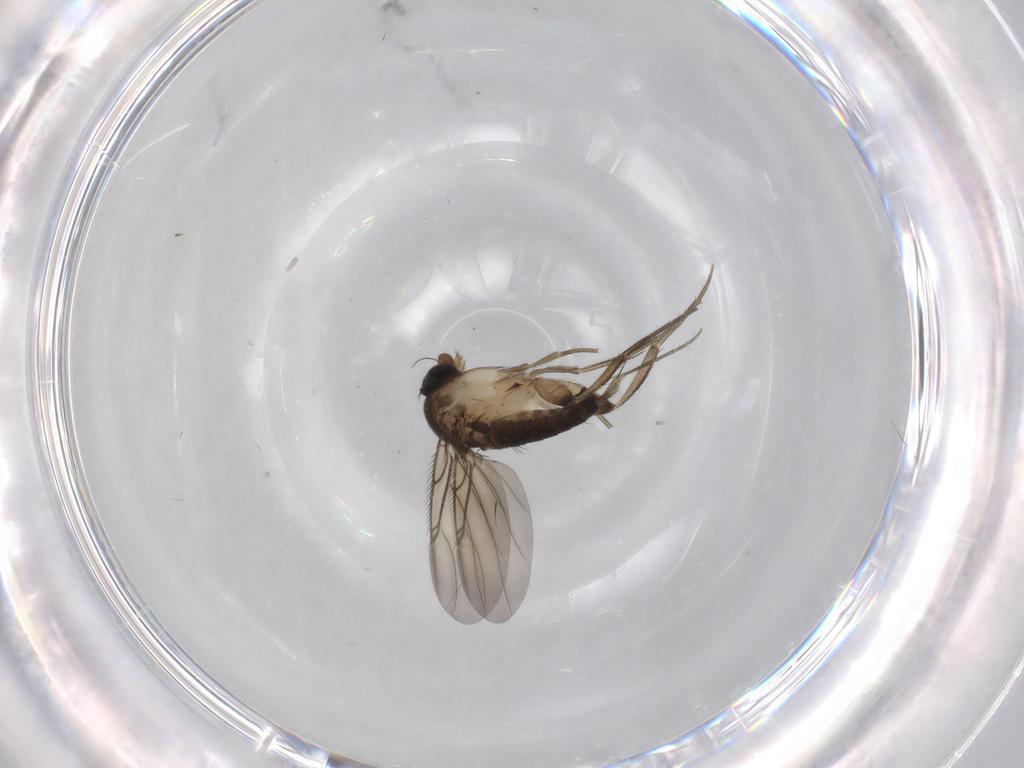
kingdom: Animalia
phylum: Arthropoda
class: Insecta
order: Diptera
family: Phoridae
